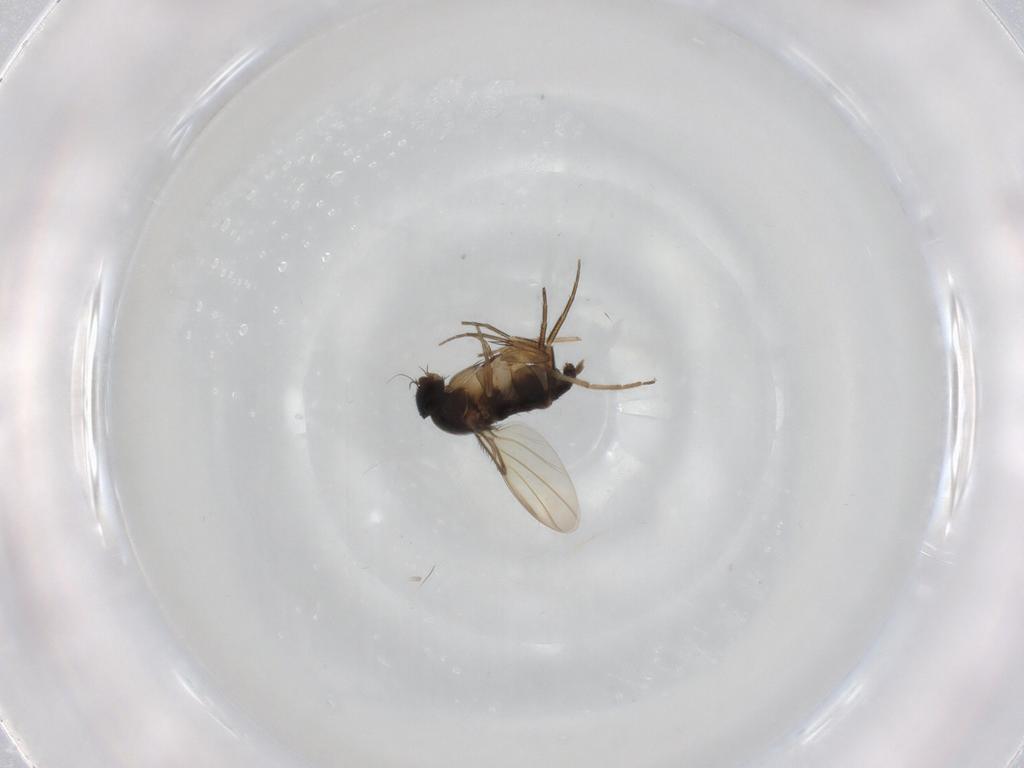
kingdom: Animalia
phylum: Arthropoda
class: Insecta
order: Diptera
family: Phoridae
